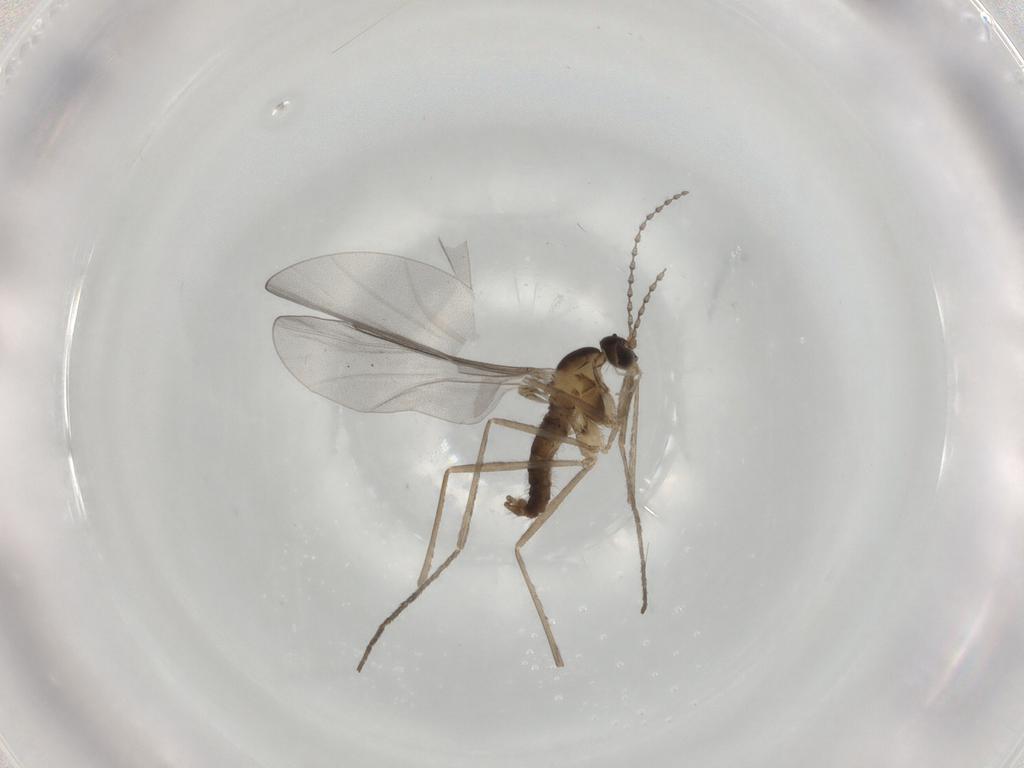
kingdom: Animalia
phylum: Arthropoda
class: Insecta
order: Diptera
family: Cecidomyiidae
